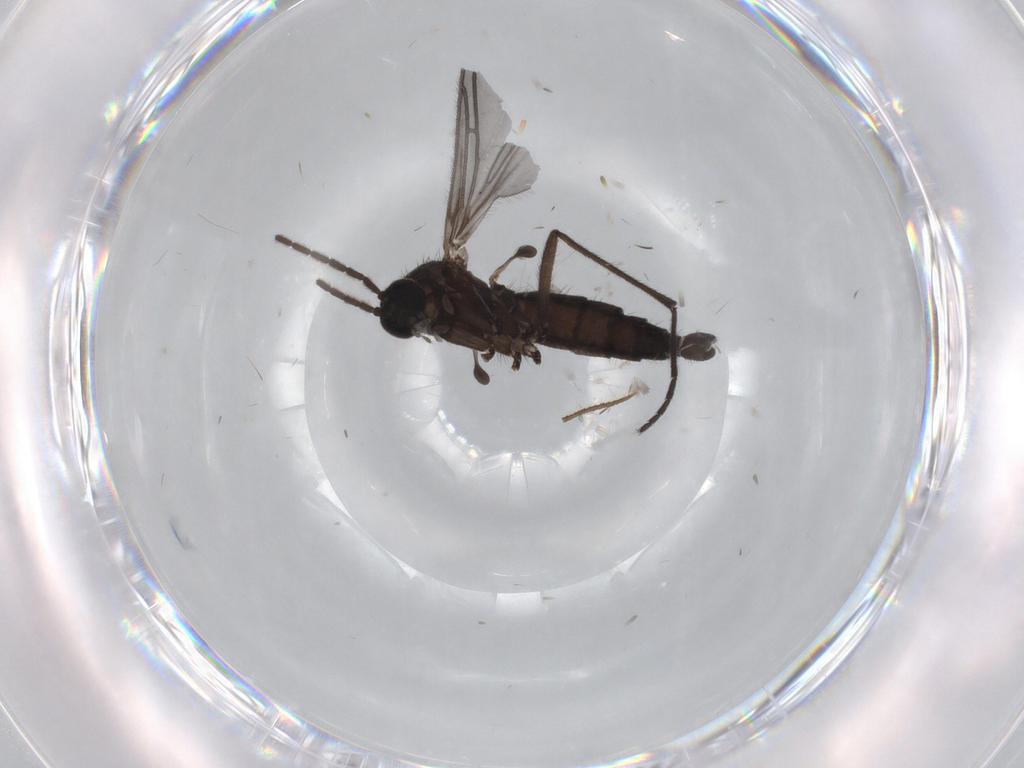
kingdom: Animalia
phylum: Arthropoda
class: Insecta
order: Diptera
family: Sciaridae
